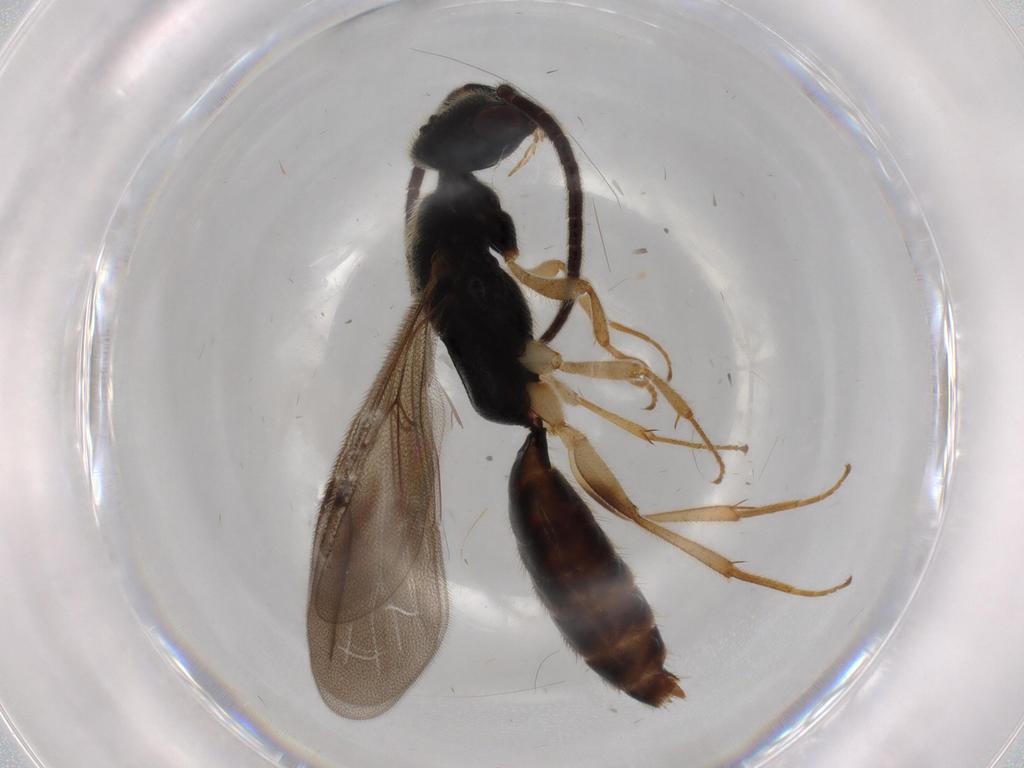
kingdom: Animalia
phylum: Arthropoda
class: Insecta
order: Hymenoptera
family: Bethylidae
